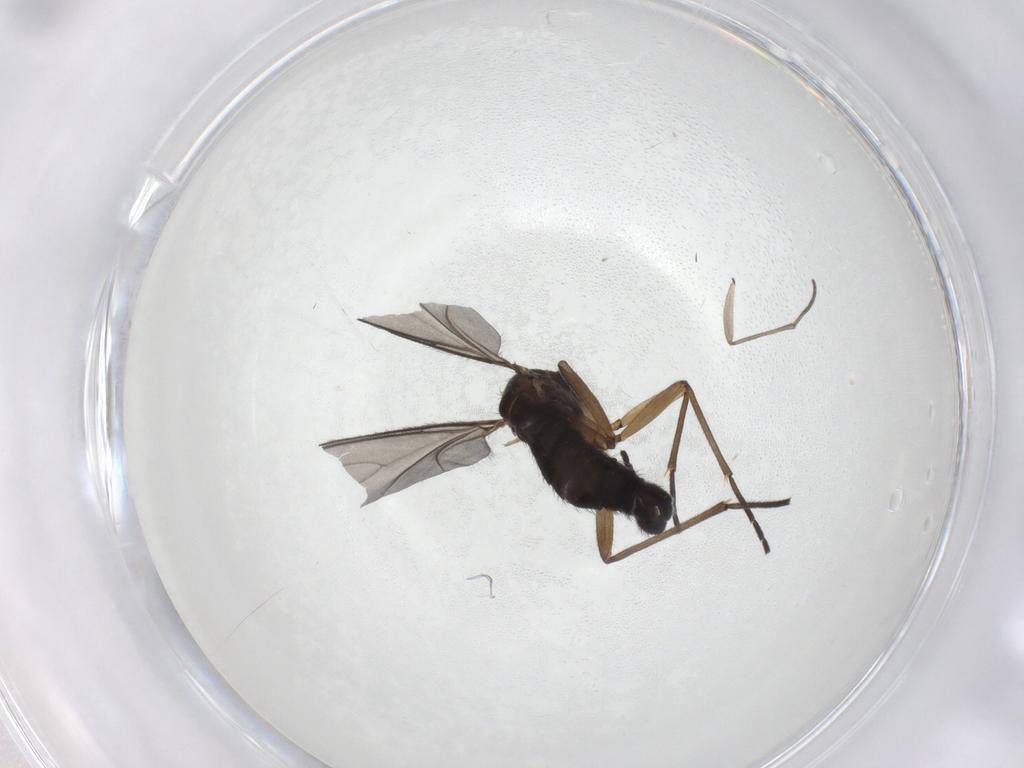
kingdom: Animalia
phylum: Arthropoda
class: Insecta
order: Diptera
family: Sciaridae
